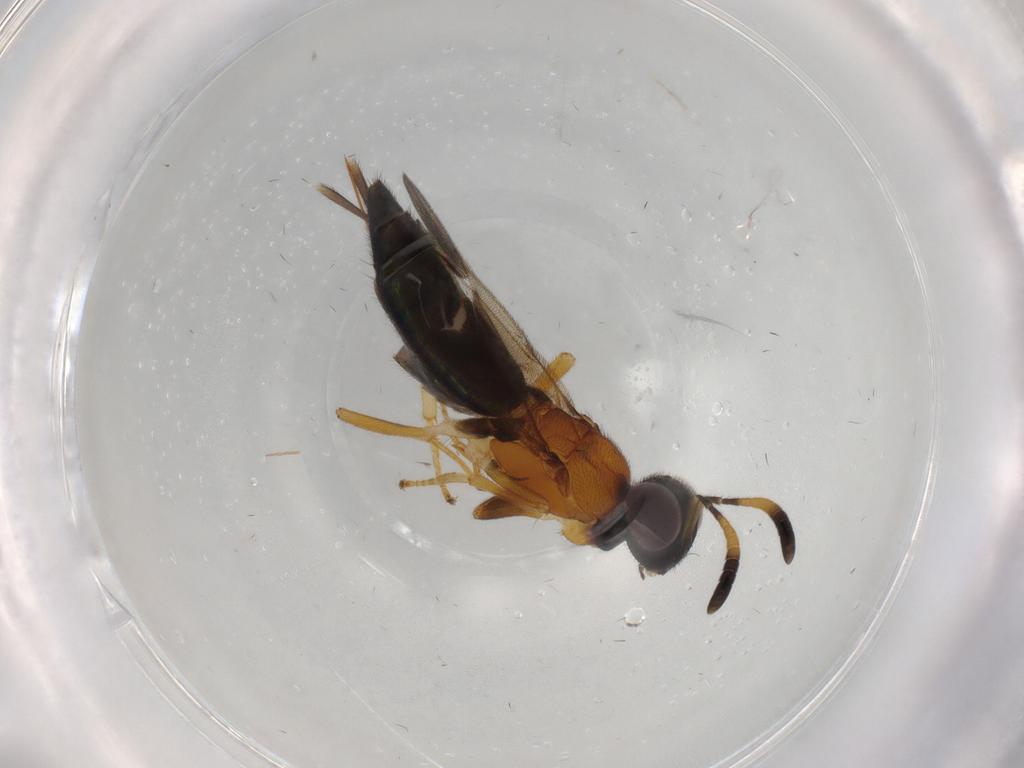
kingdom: Animalia
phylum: Arthropoda
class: Insecta
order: Hymenoptera
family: Eupelmidae
